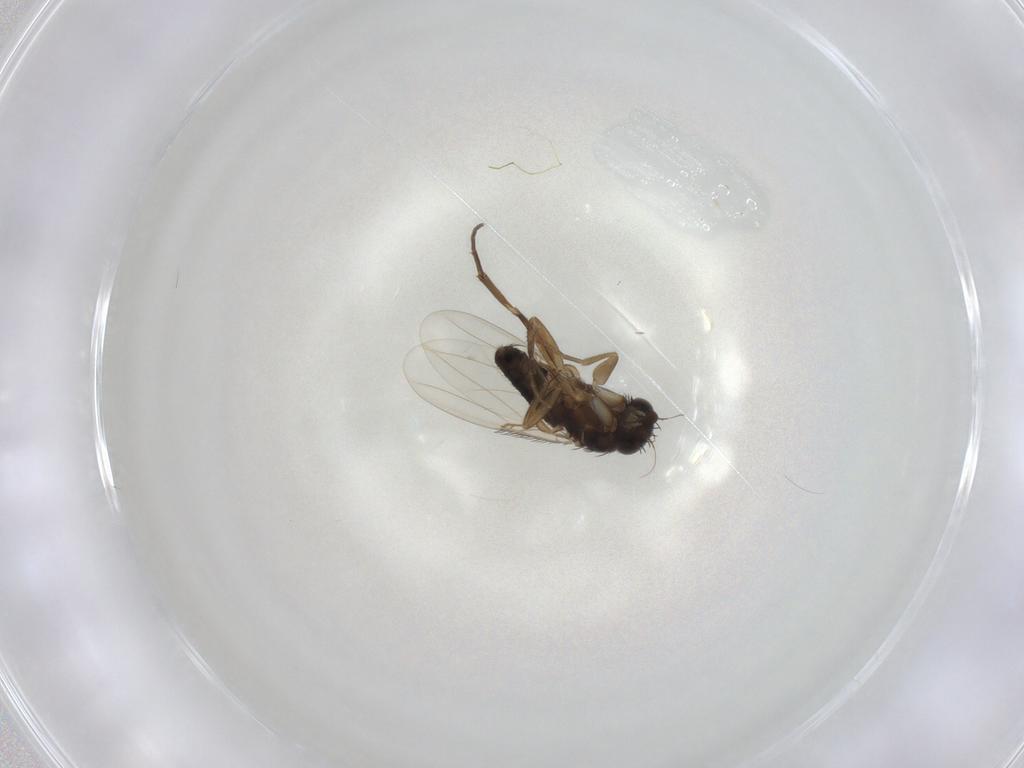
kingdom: Animalia
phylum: Arthropoda
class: Insecta
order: Diptera
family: Phoridae
